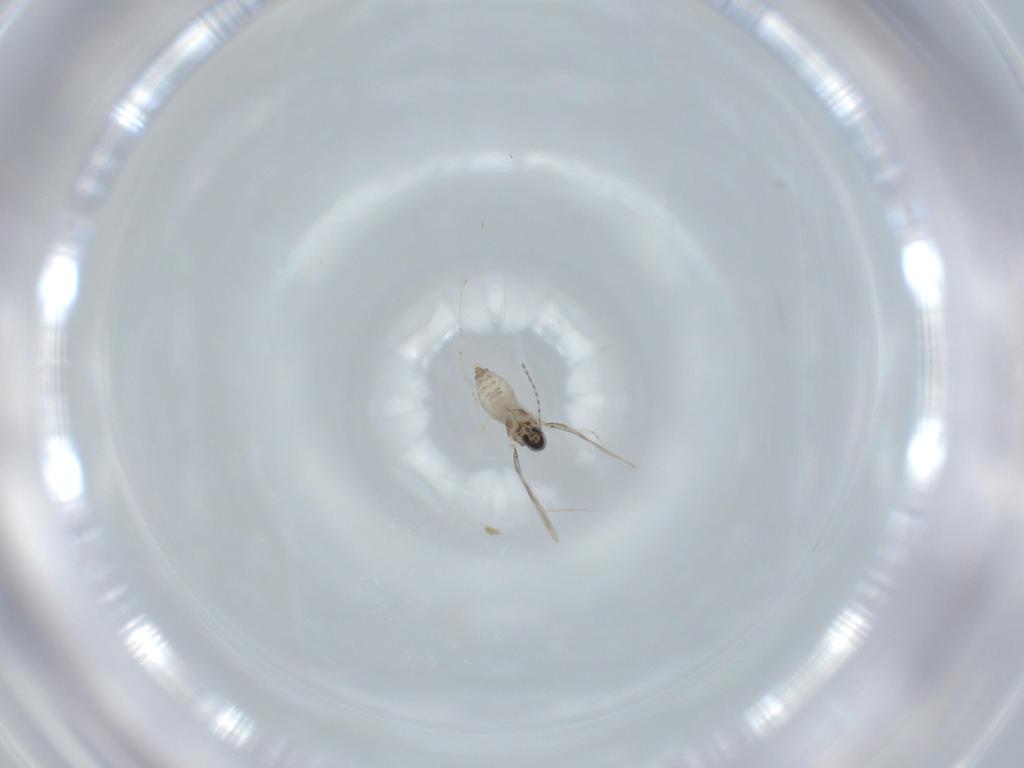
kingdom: Animalia
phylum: Arthropoda
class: Insecta
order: Diptera
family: Cecidomyiidae
